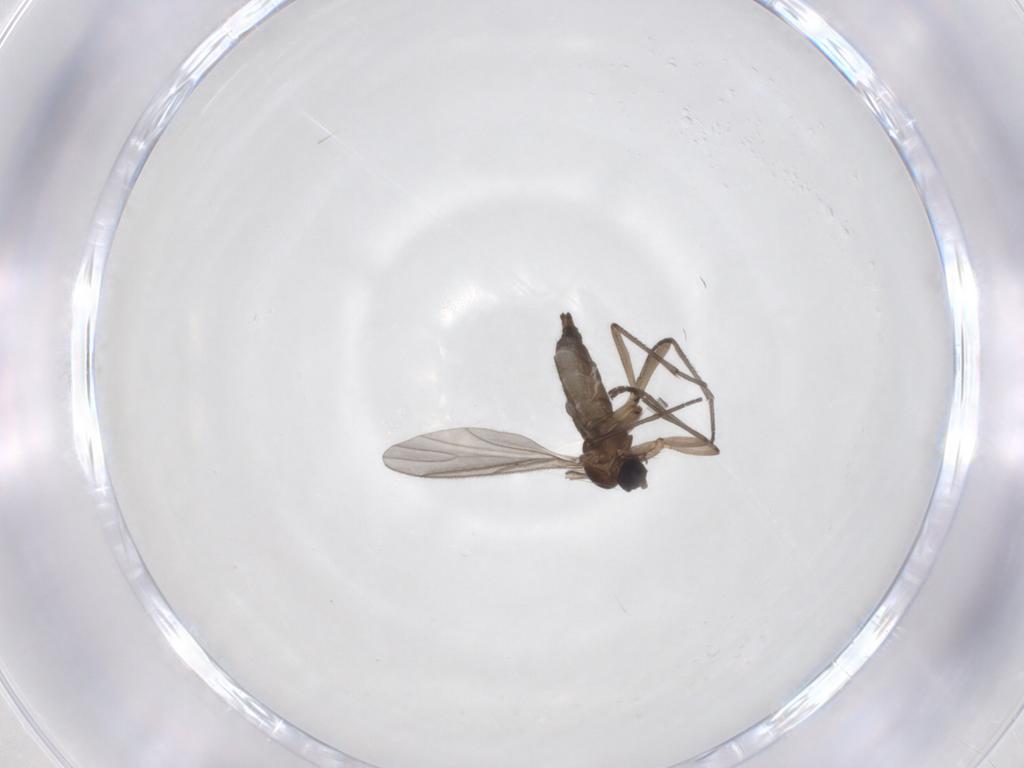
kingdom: Animalia
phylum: Arthropoda
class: Insecta
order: Diptera
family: Sciaridae
